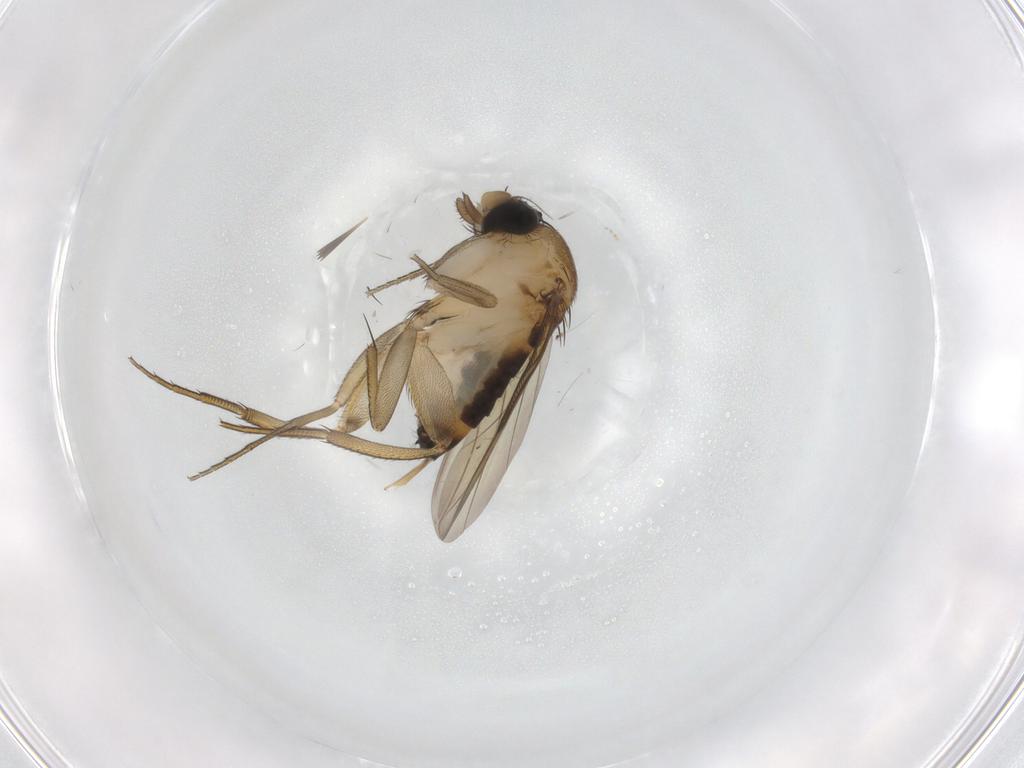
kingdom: Animalia
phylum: Arthropoda
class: Insecta
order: Diptera
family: Phoridae
